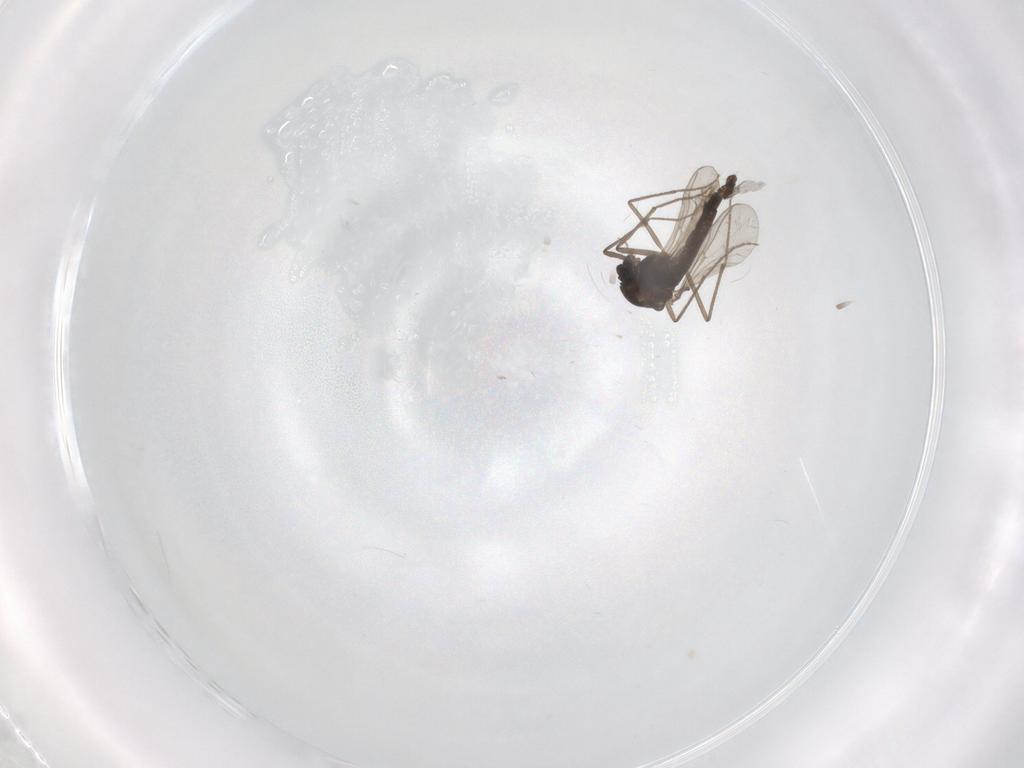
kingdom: Animalia
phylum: Arthropoda
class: Insecta
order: Diptera
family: Chironomidae
